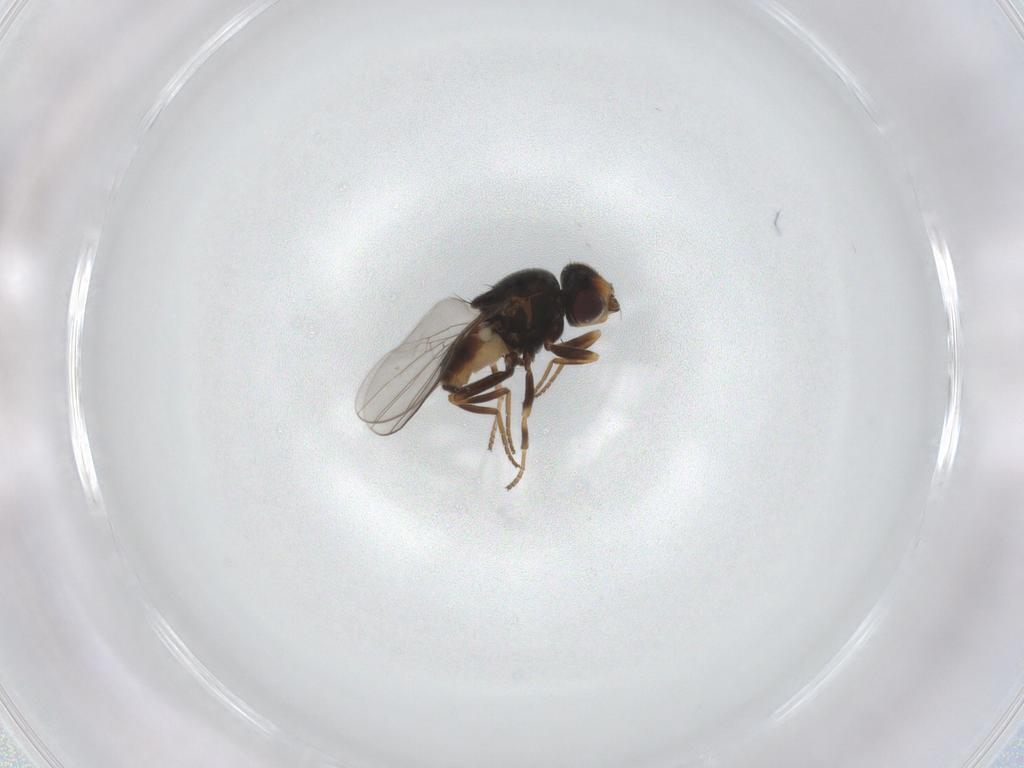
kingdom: Animalia
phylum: Arthropoda
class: Insecta
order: Diptera
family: Chloropidae
